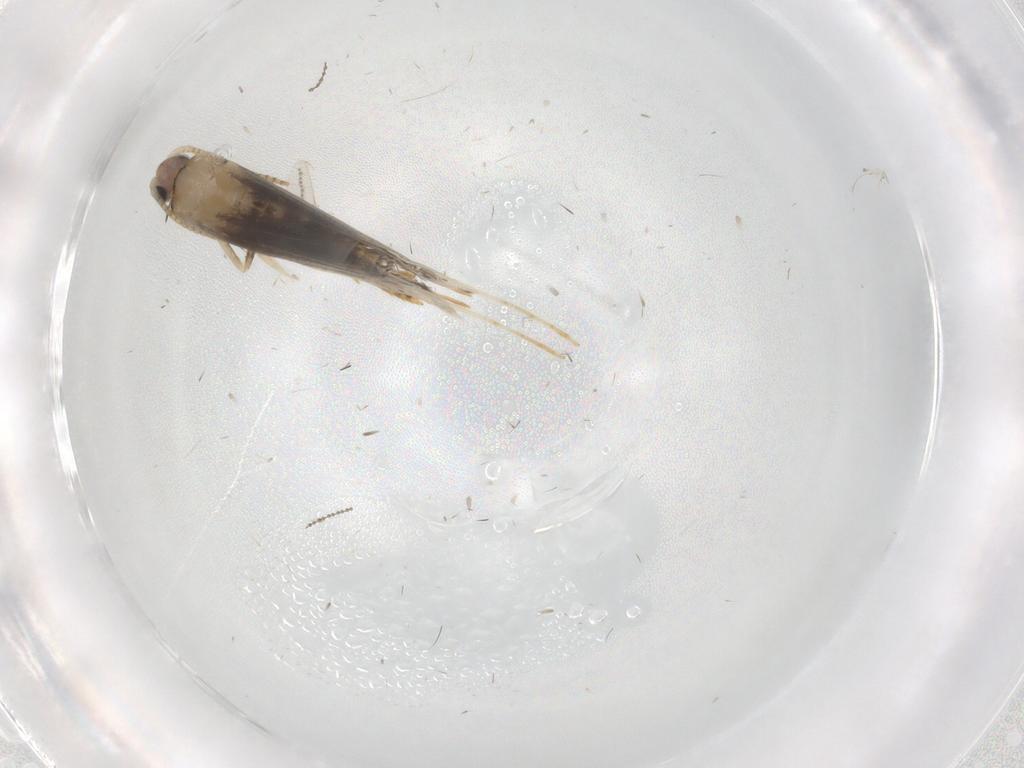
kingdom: Animalia
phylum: Arthropoda
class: Insecta
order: Lepidoptera
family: Tineidae
